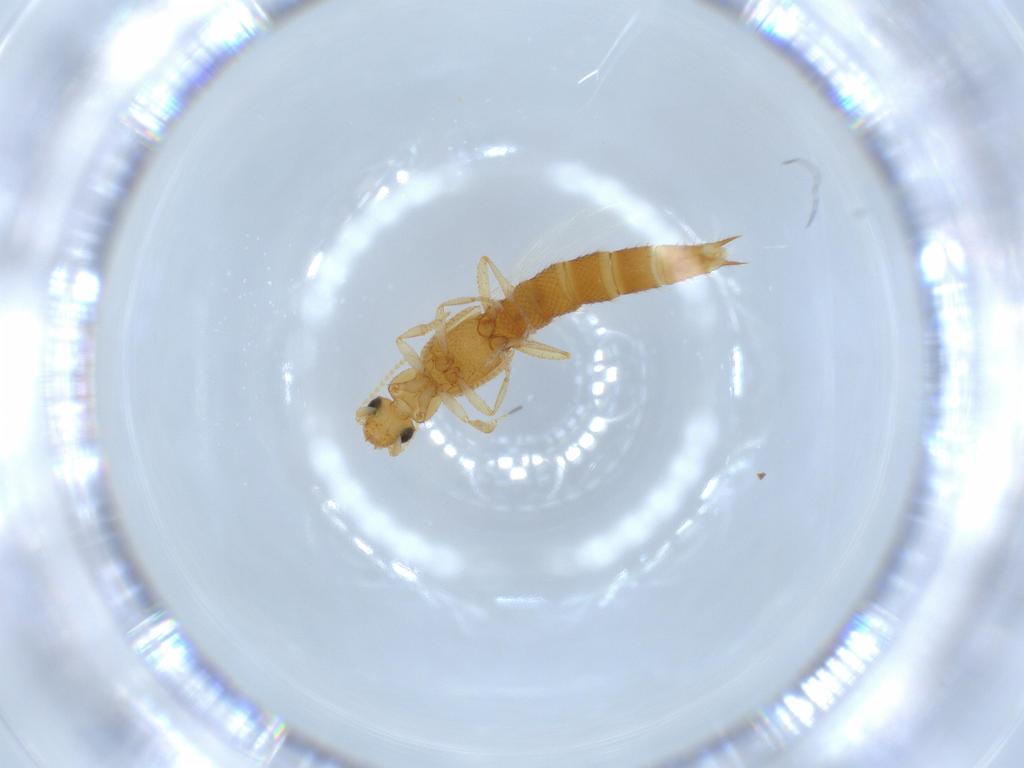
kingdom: Animalia
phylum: Arthropoda
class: Insecta
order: Coleoptera
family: Staphylinidae
